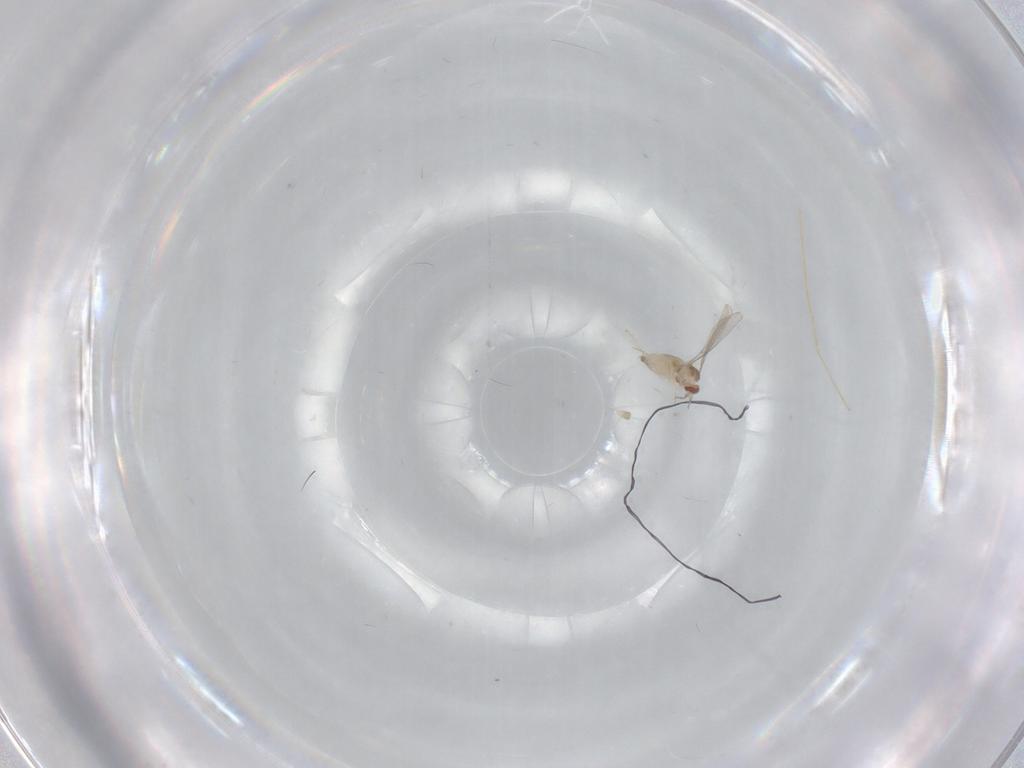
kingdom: Animalia
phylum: Arthropoda
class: Insecta
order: Diptera
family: Cecidomyiidae
